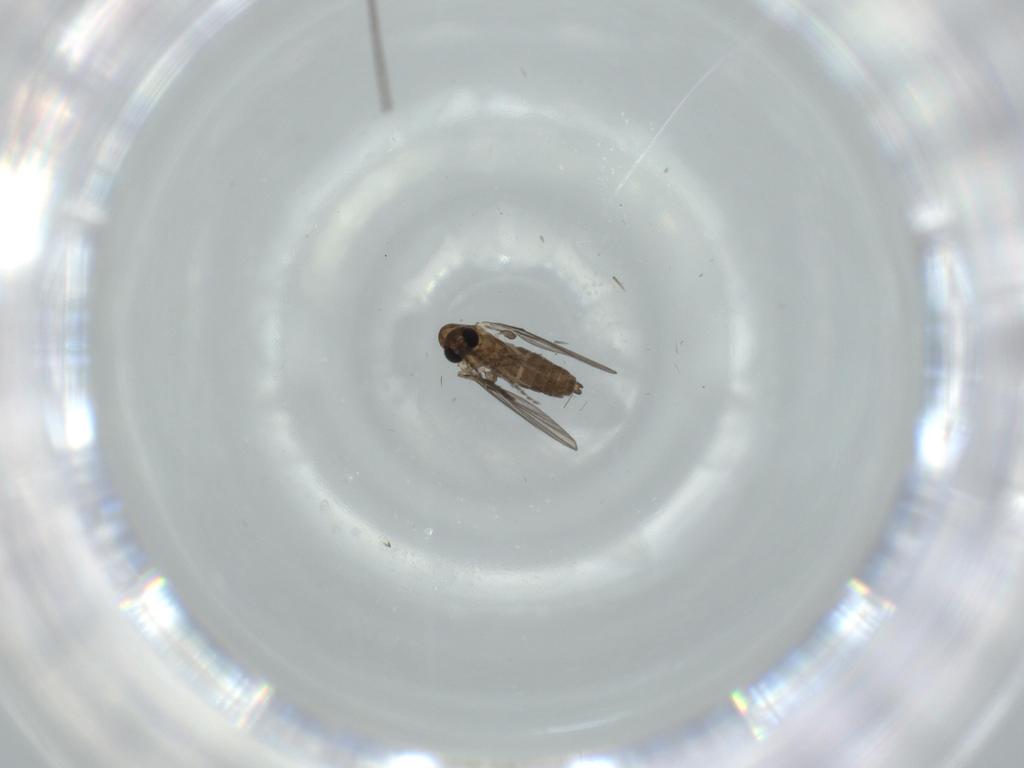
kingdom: Animalia
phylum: Arthropoda
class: Insecta
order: Diptera
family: Psychodidae
